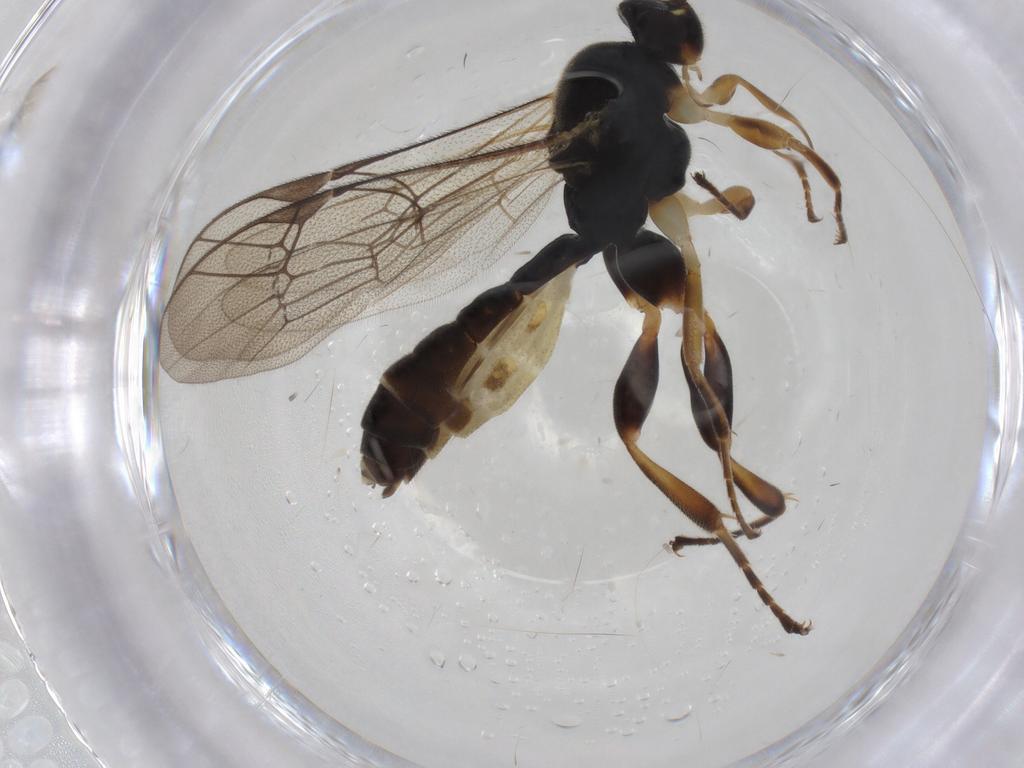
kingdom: Animalia
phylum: Arthropoda
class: Insecta
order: Hymenoptera
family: Ichneumonidae
